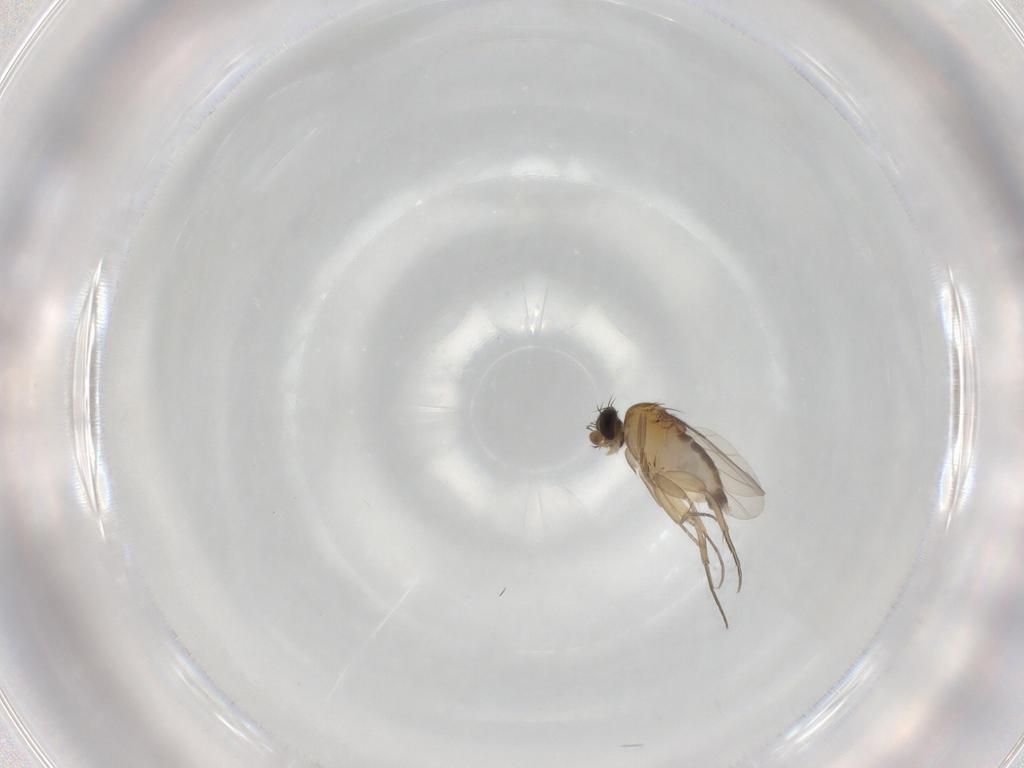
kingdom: Animalia
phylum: Arthropoda
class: Insecta
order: Diptera
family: Phoridae
